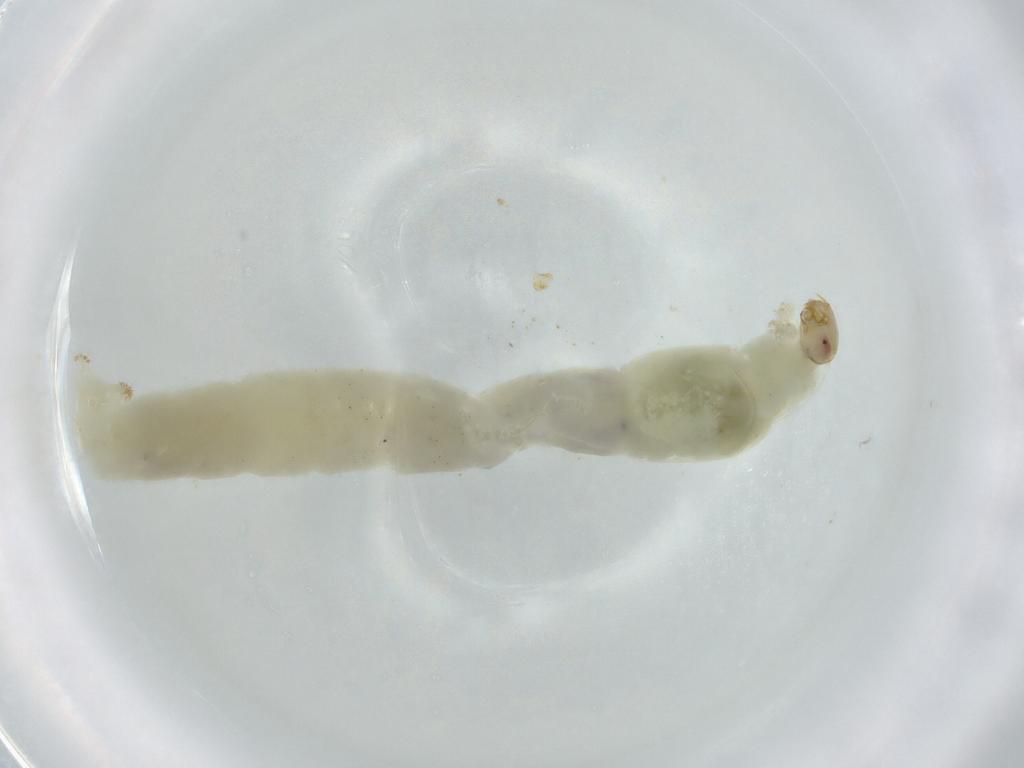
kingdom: Animalia
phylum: Arthropoda
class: Insecta
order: Diptera
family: Chironomidae
